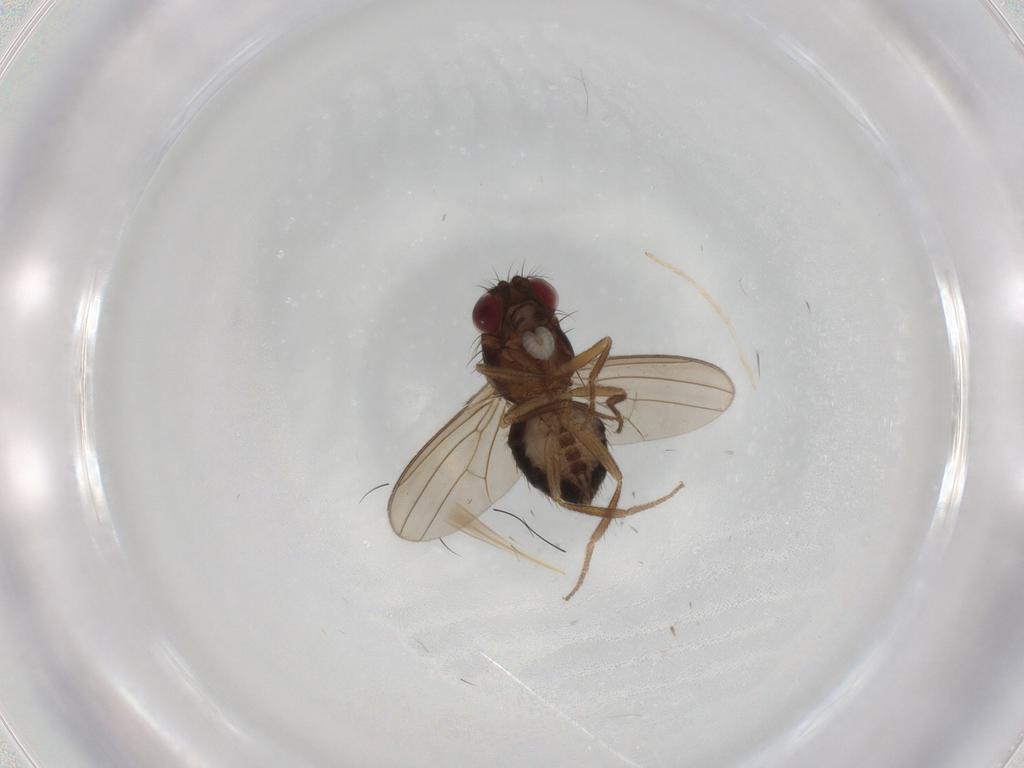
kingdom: Animalia
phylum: Arthropoda
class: Insecta
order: Diptera
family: Drosophilidae
